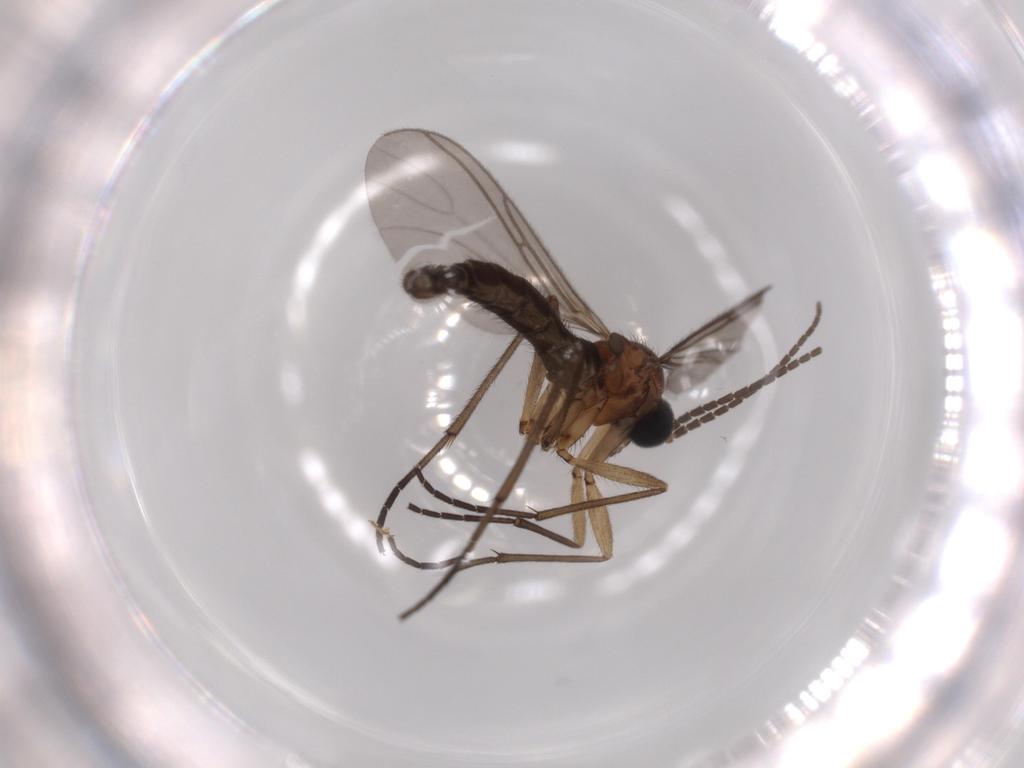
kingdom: Animalia
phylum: Arthropoda
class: Insecta
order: Diptera
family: Sciaridae
